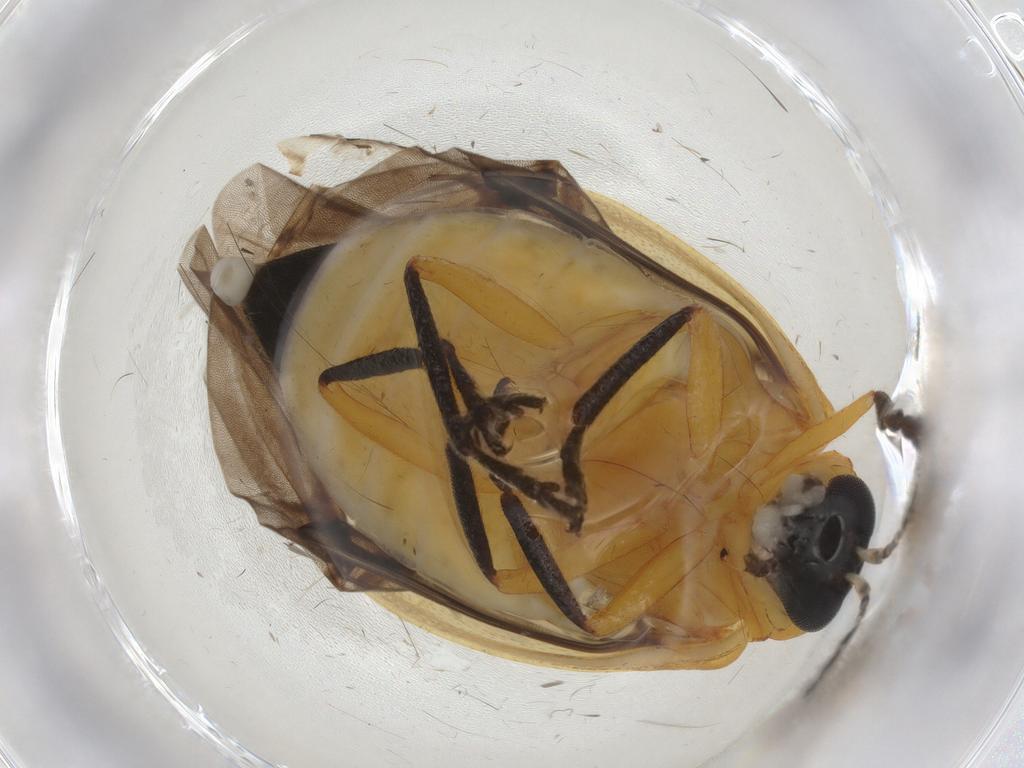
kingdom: Animalia
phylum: Arthropoda
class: Insecta
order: Coleoptera
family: Chrysomelidae
